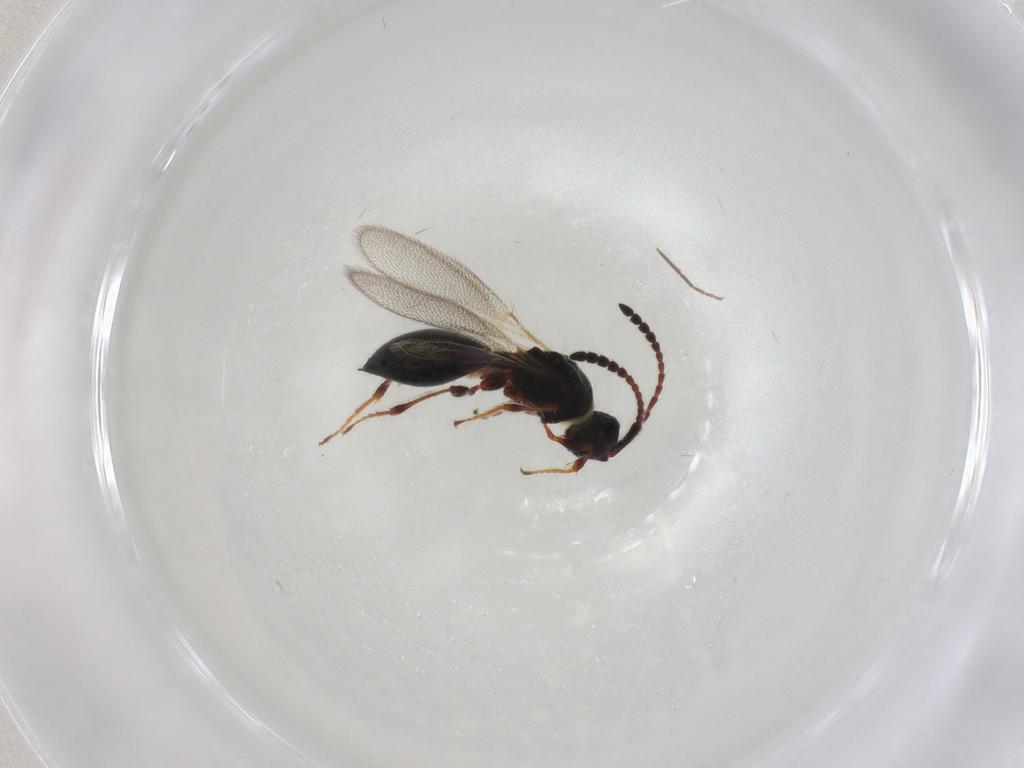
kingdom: Animalia
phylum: Arthropoda
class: Insecta
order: Hymenoptera
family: Diapriidae
